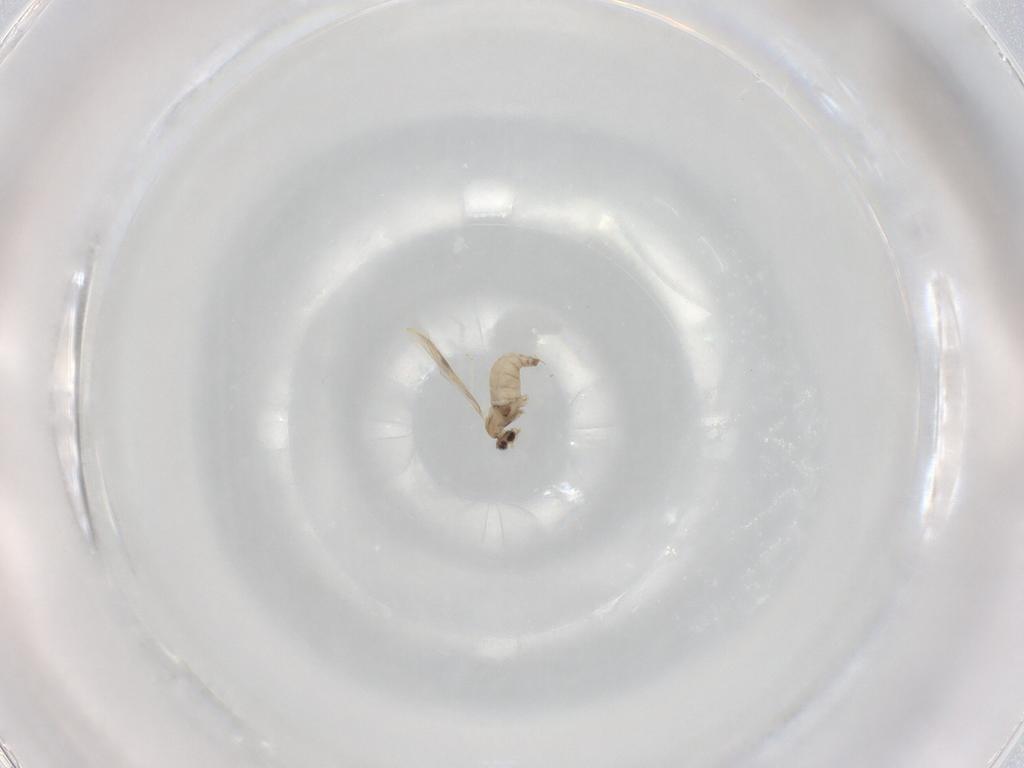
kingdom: Animalia
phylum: Arthropoda
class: Insecta
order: Diptera
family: Cecidomyiidae
